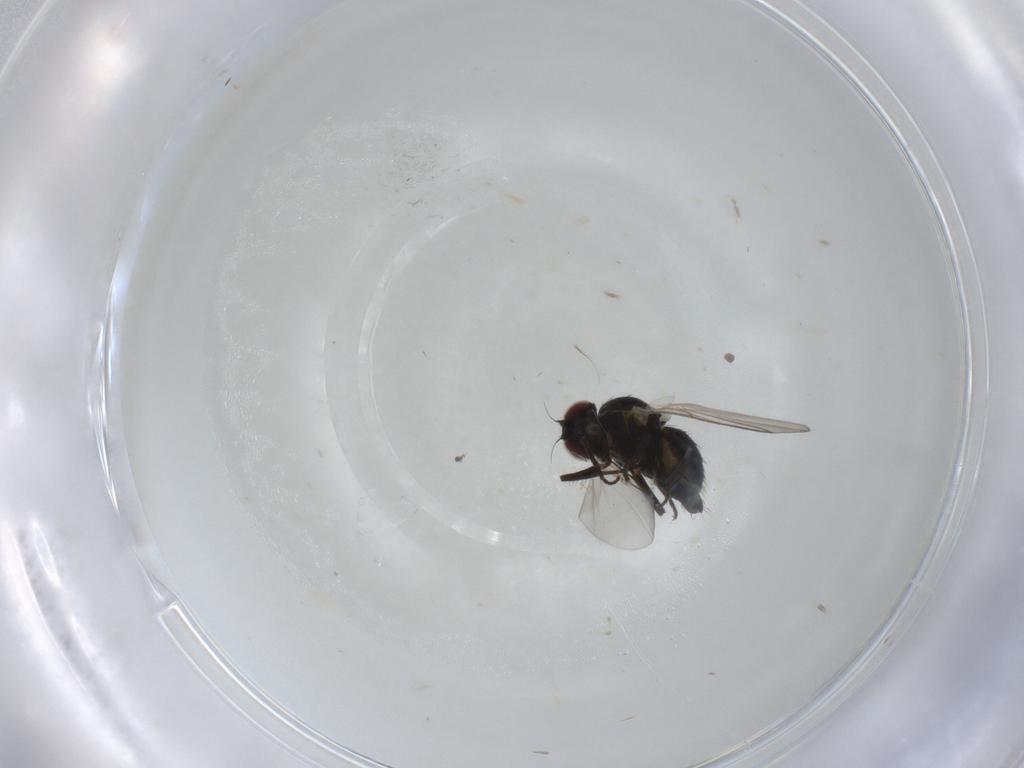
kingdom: Animalia
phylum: Arthropoda
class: Insecta
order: Diptera
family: Agromyzidae
